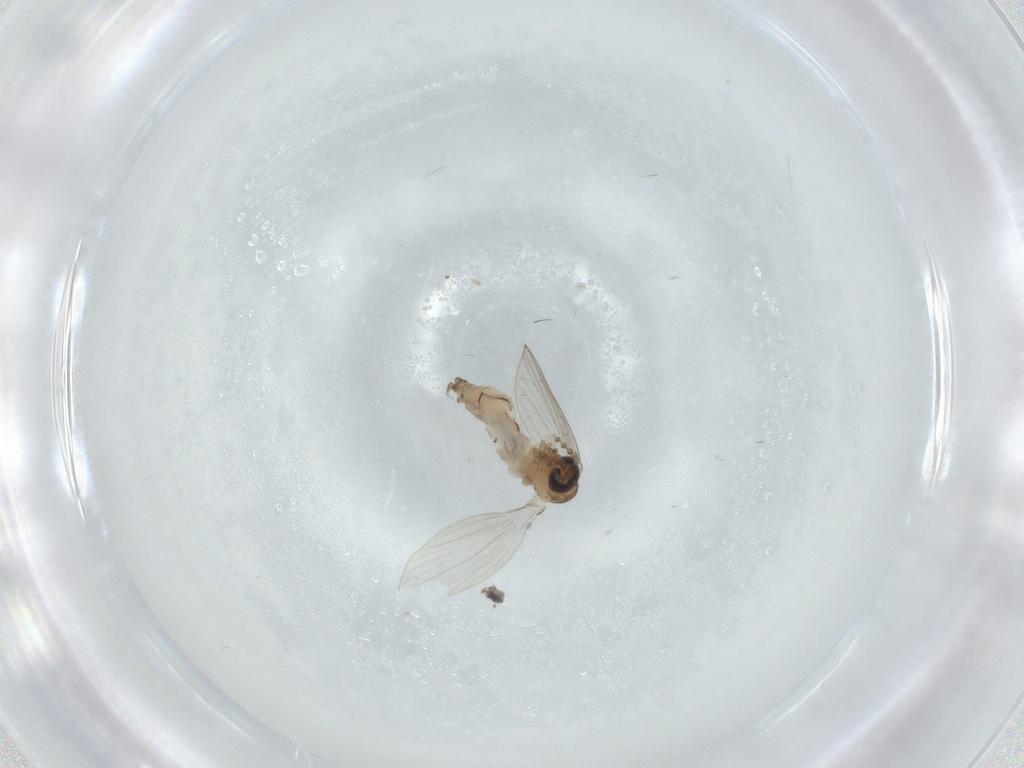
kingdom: Animalia
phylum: Arthropoda
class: Insecta
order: Diptera
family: Psychodidae
